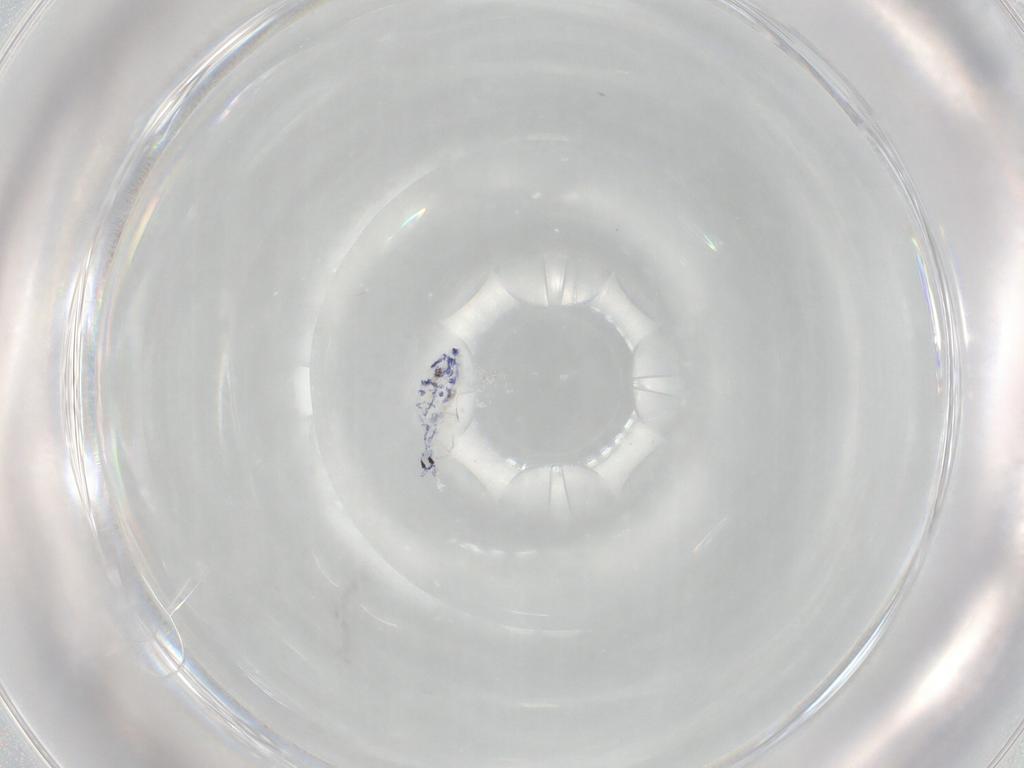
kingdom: Animalia
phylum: Arthropoda
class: Collembola
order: Entomobryomorpha
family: Entomobryidae
